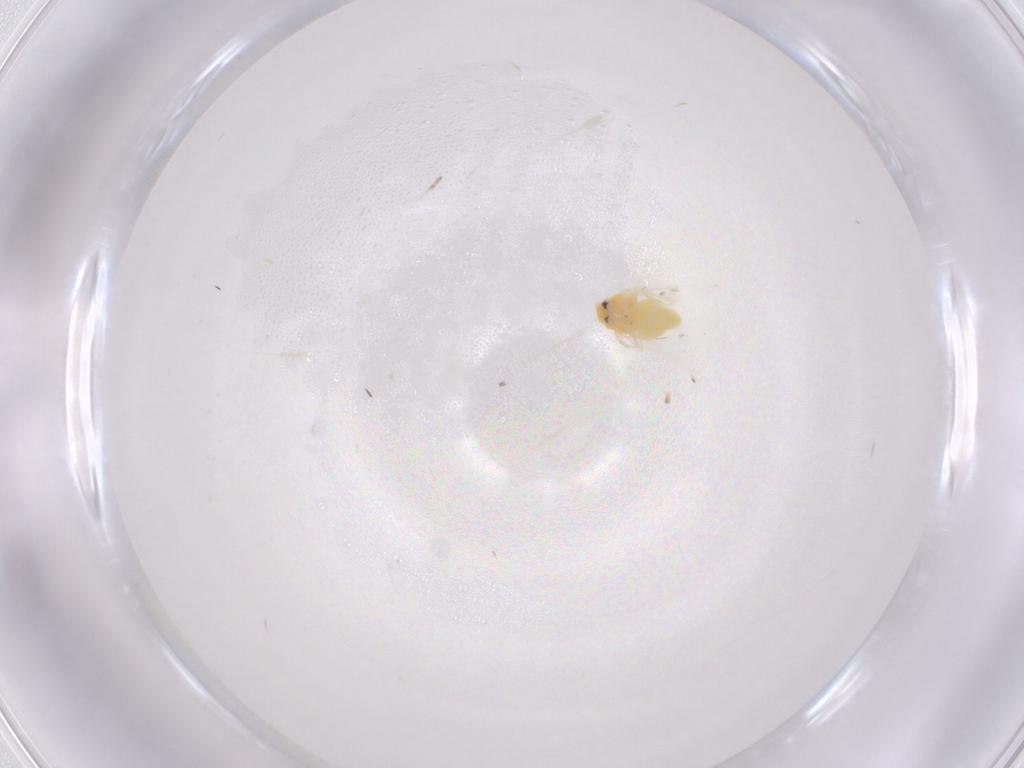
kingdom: Animalia
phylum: Arthropoda
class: Insecta
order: Hemiptera
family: Aleyrodidae
